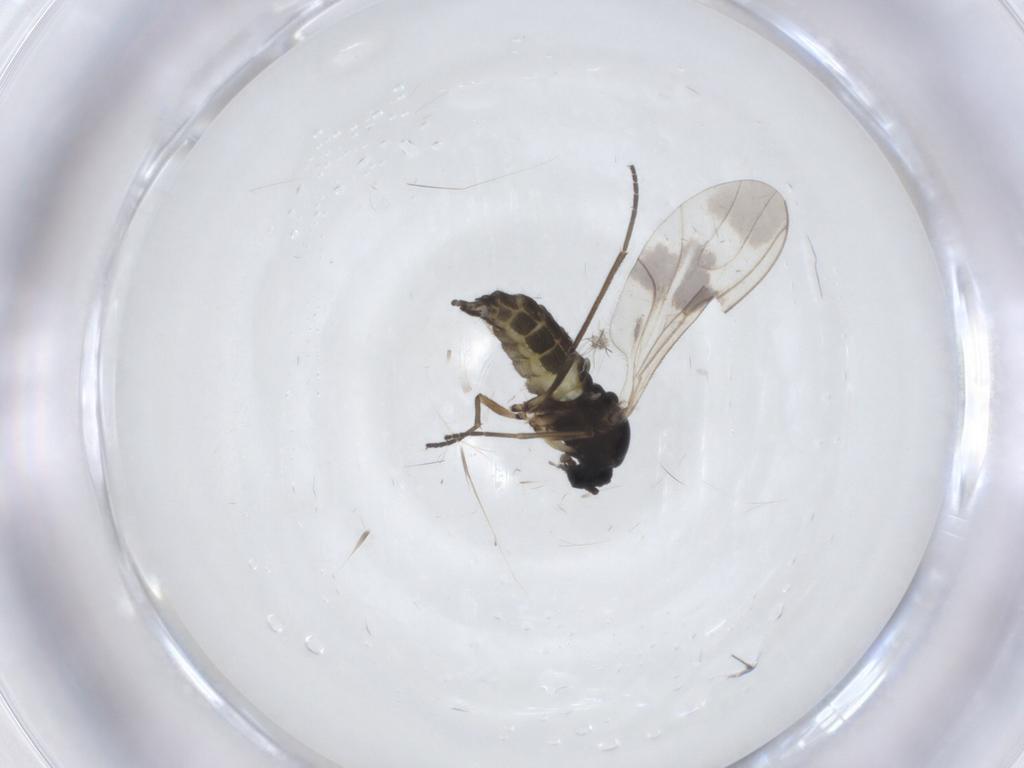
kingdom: Animalia
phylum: Arthropoda
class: Insecta
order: Diptera
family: Sciaridae
